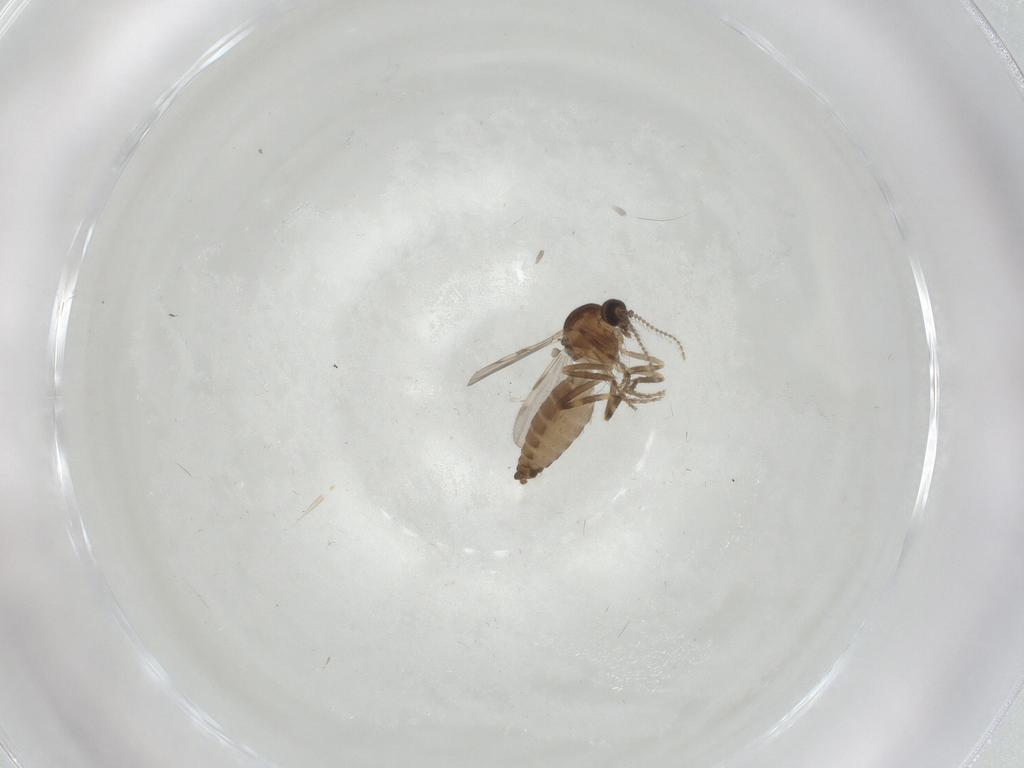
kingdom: Animalia
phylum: Arthropoda
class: Insecta
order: Diptera
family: Ceratopogonidae
